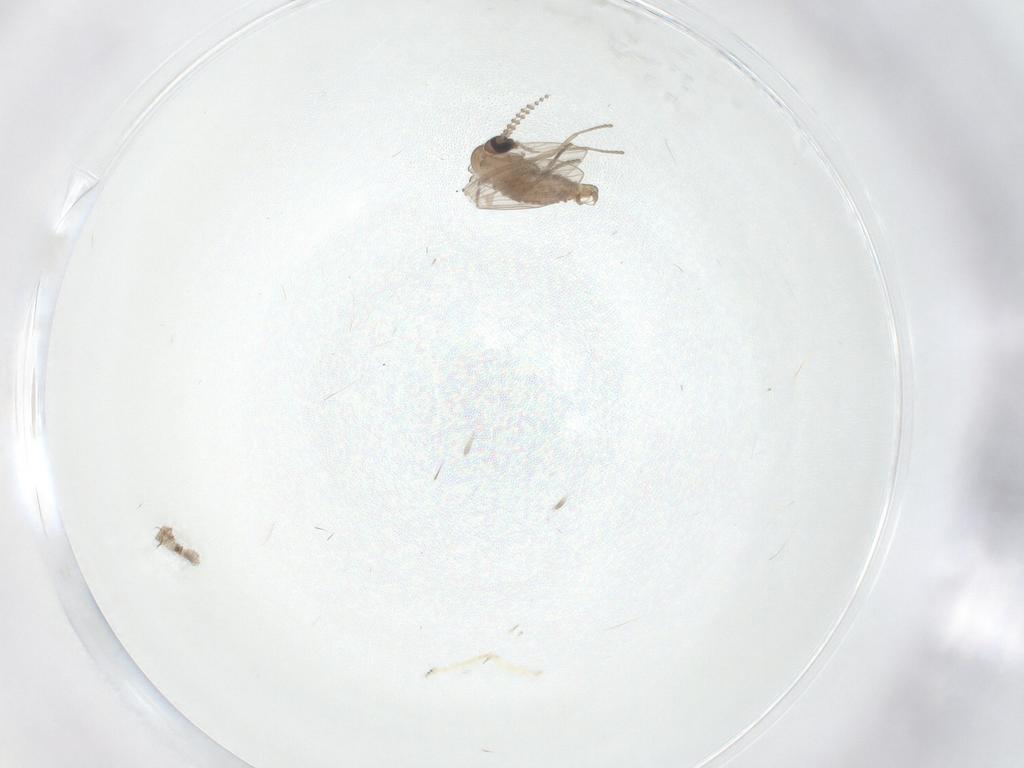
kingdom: Animalia
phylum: Arthropoda
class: Insecta
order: Diptera
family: Psychodidae
